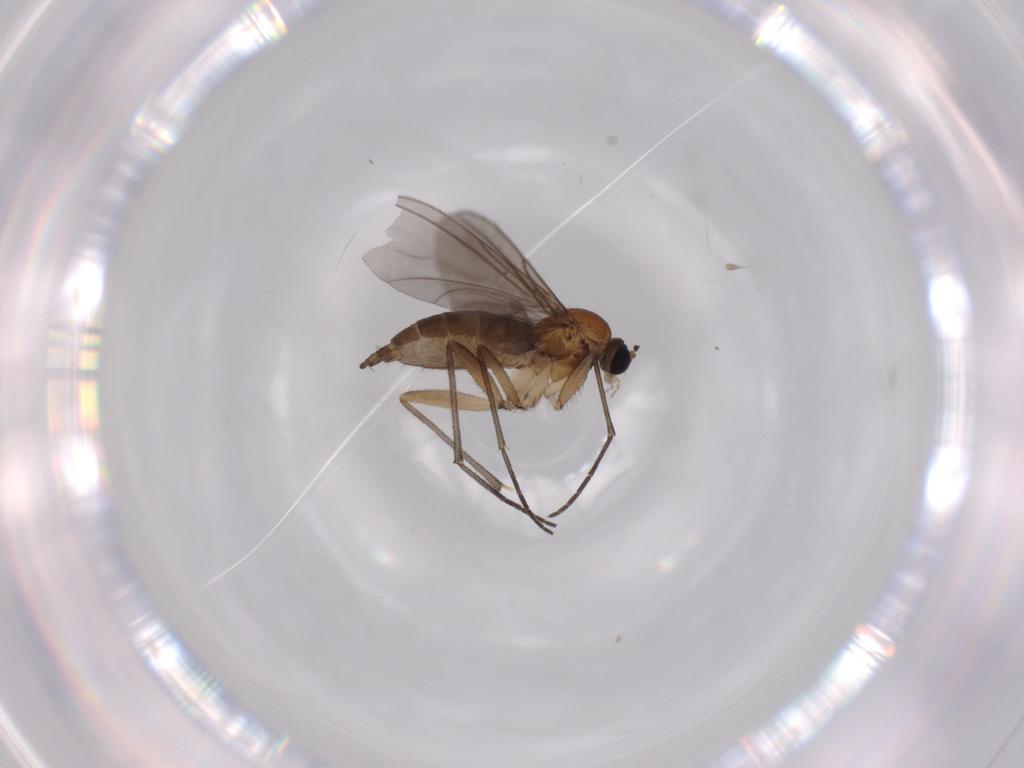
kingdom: Animalia
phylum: Arthropoda
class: Insecta
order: Diptera
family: Sciaridae
